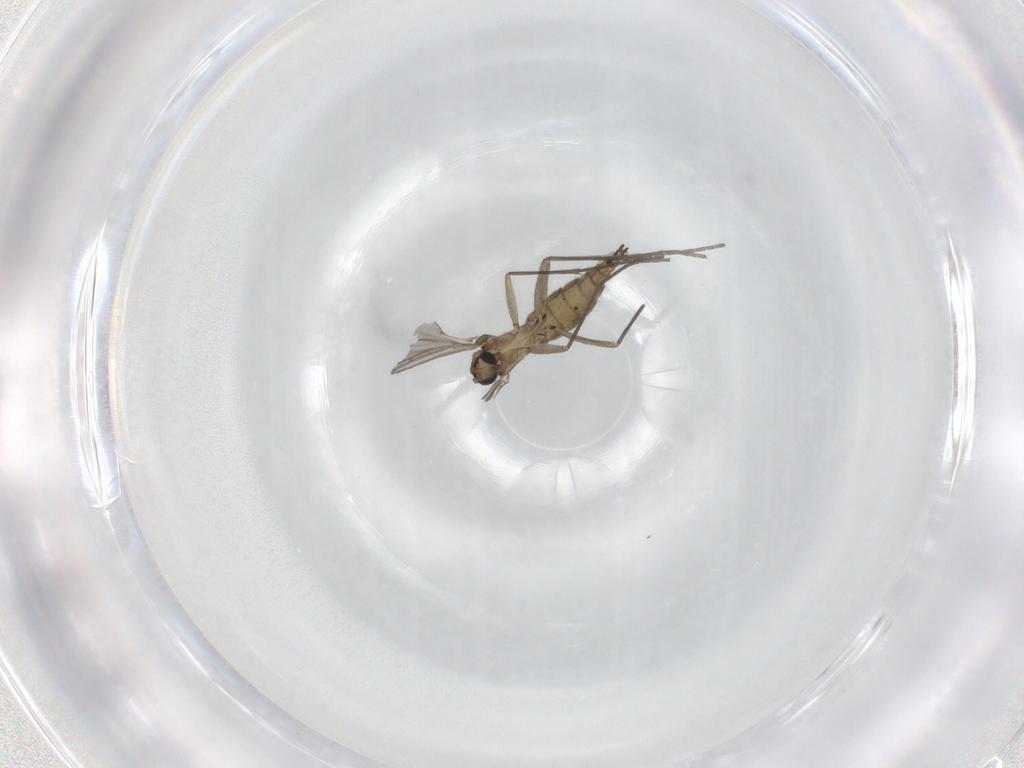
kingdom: Animalia
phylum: Arthropoda
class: Insecta
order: Diptera
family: Sciaridae
